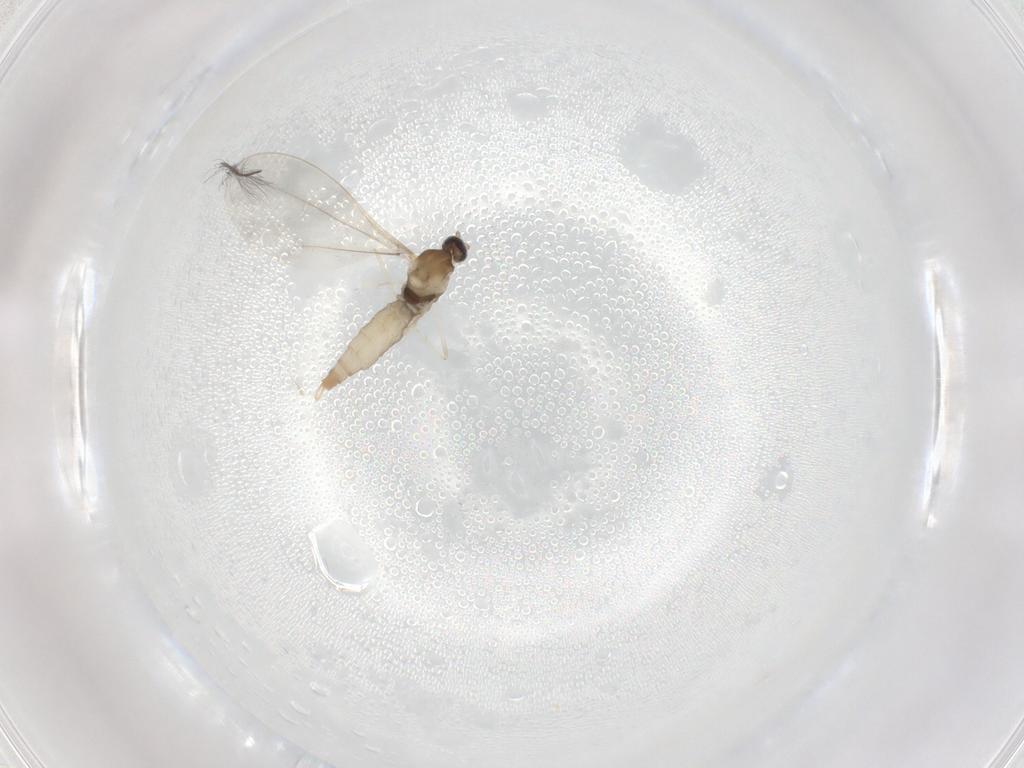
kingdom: Animalia
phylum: Arthropoda
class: Insecta
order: Diptera
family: Cecidomyiidae
